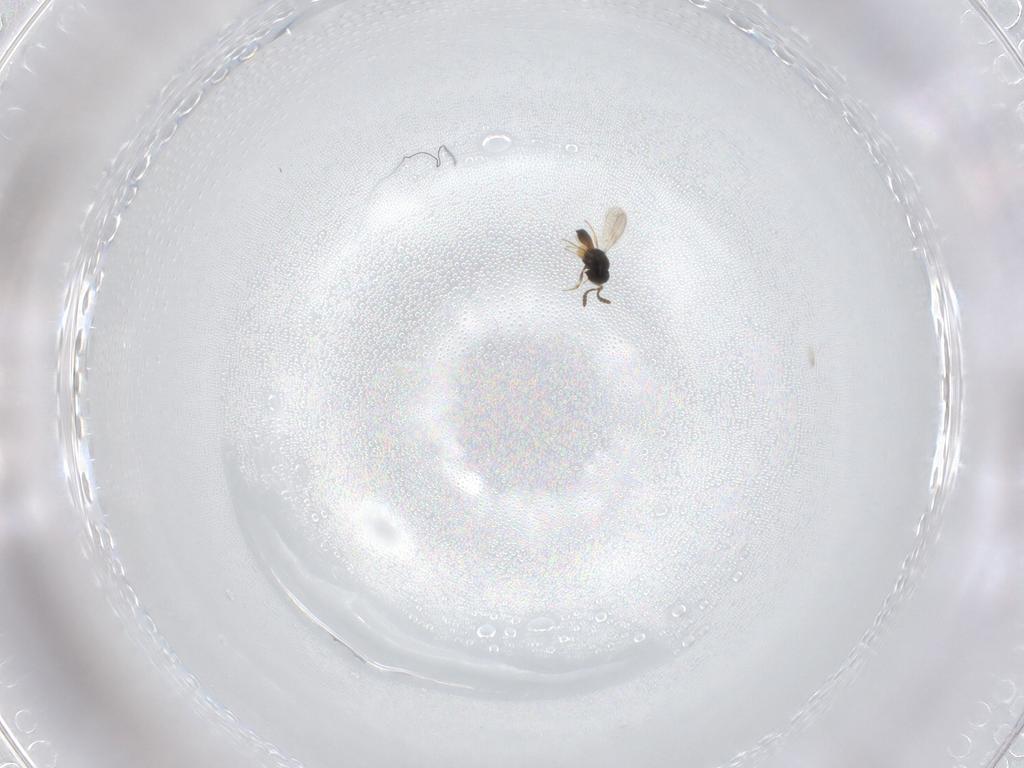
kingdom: Animalia
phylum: Arthropoda
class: Insecta
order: Hymenoptera
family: Scelionidae
